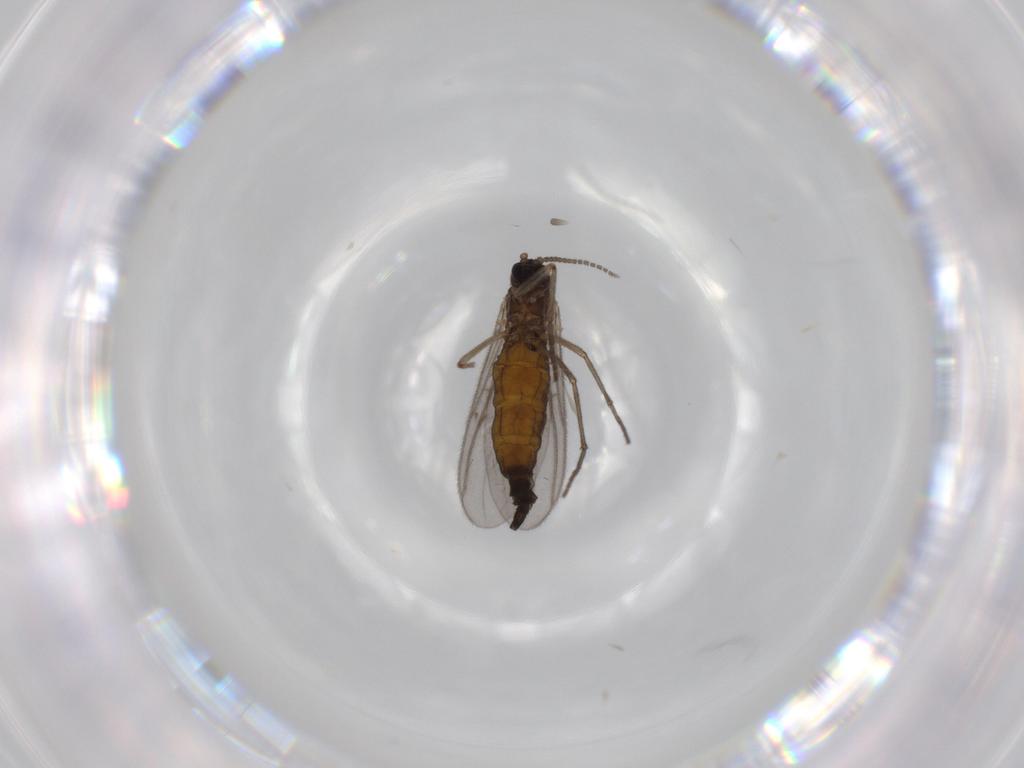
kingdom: Animalia
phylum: Arthropoda
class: Insecta
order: Diptera
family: Sciaridae
